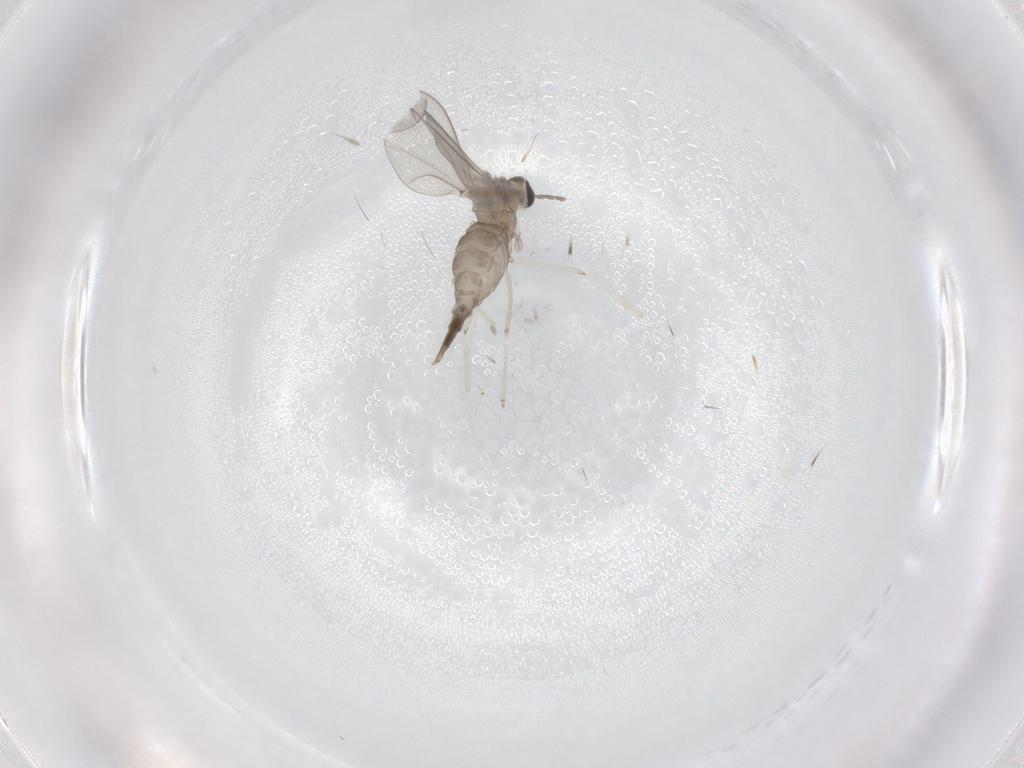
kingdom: Animalia
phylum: Arthropoda
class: Insecta
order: Diptera
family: Cecidomyiidae
